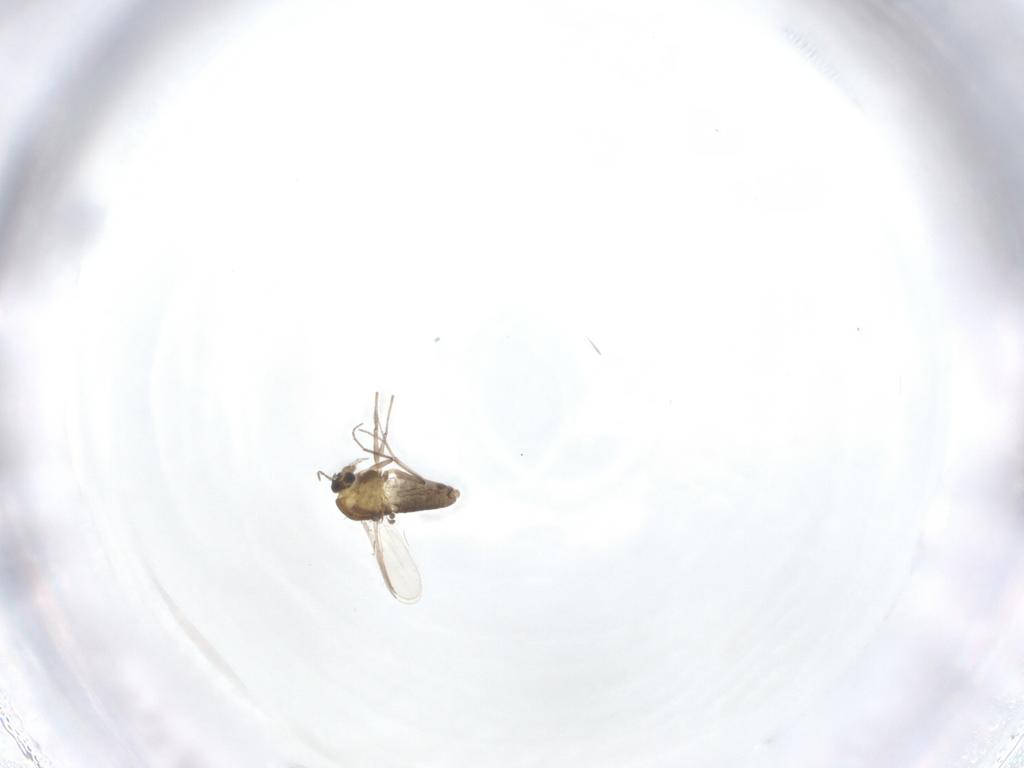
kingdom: Animalia
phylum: Arthropoda
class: Insecta
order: Diptera
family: Chironomidae
